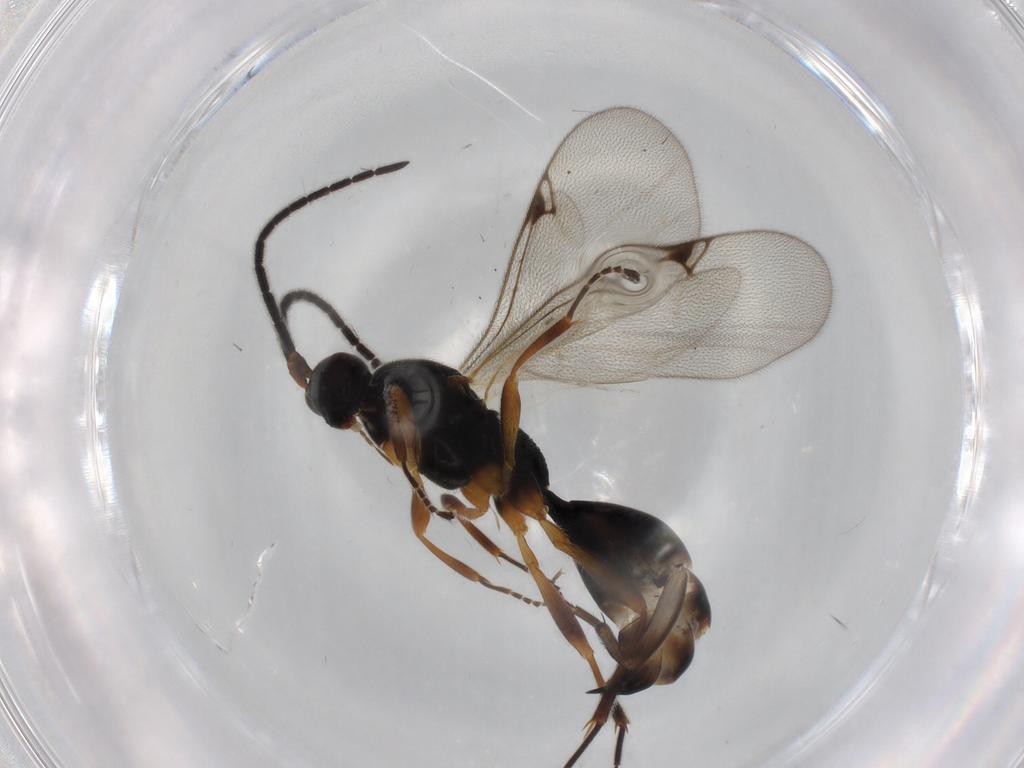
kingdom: Animalia
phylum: Arthropoda
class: Insecta
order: Hymenoptera
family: Proctotrupidae
